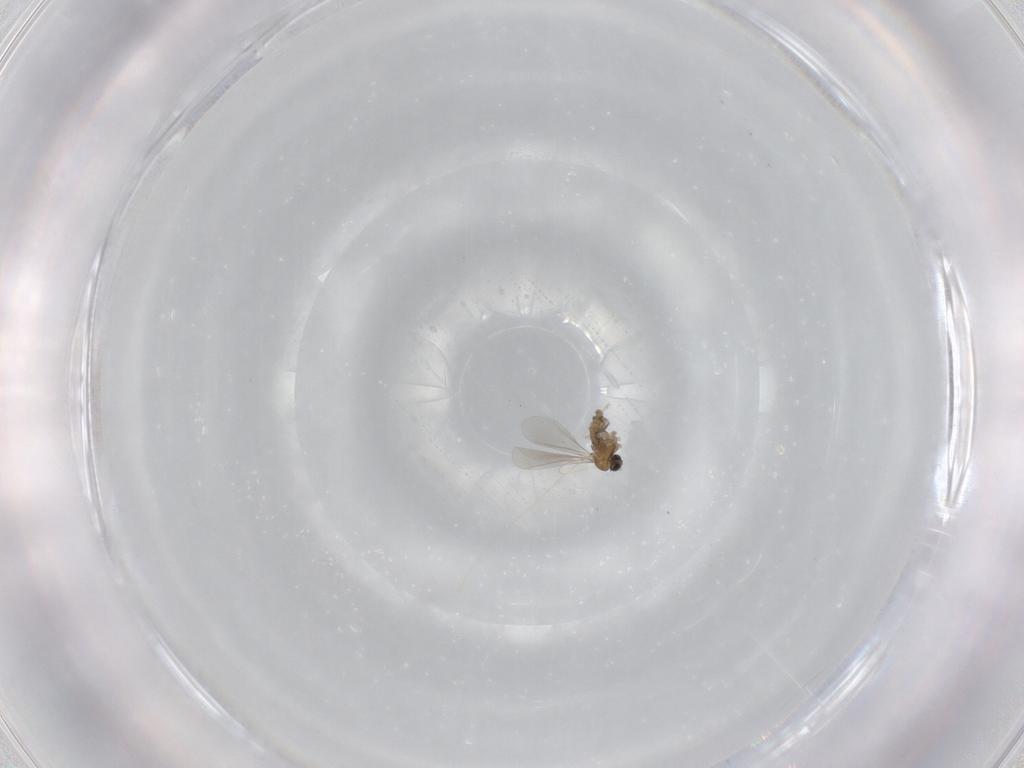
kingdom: Animalia
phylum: Arthropoda
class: Insecta
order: Diptera
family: Cecidomyiidae
